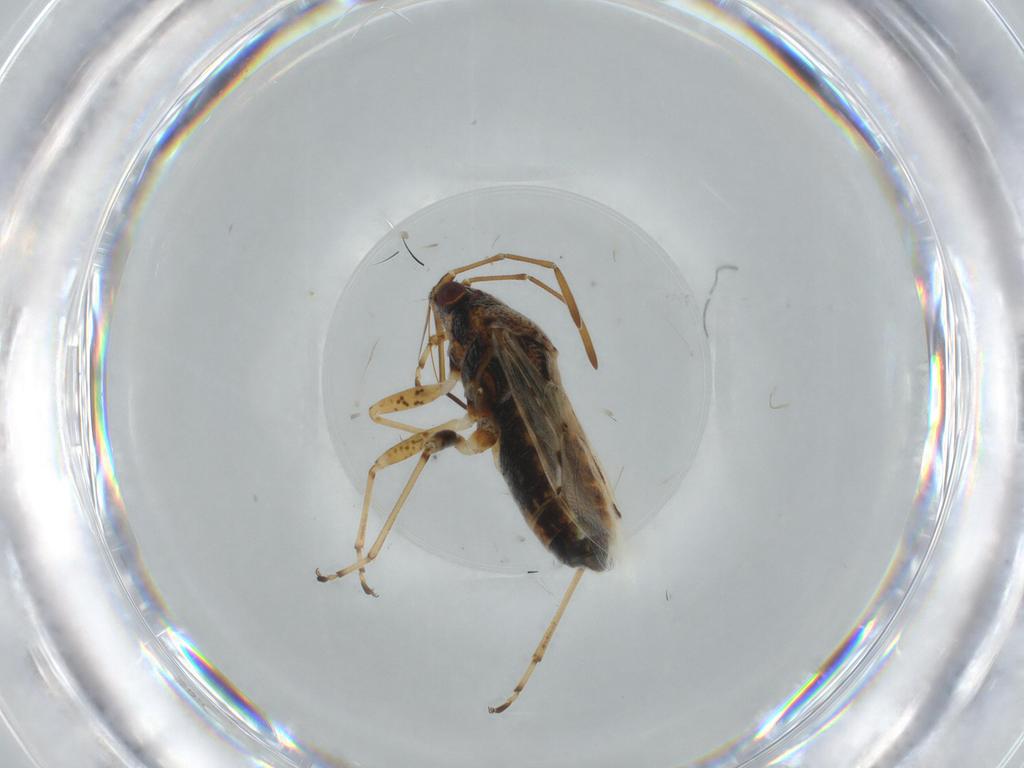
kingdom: Animalia
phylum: Arthropoda
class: Insecta
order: Hemiptera
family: Lygaeidae
